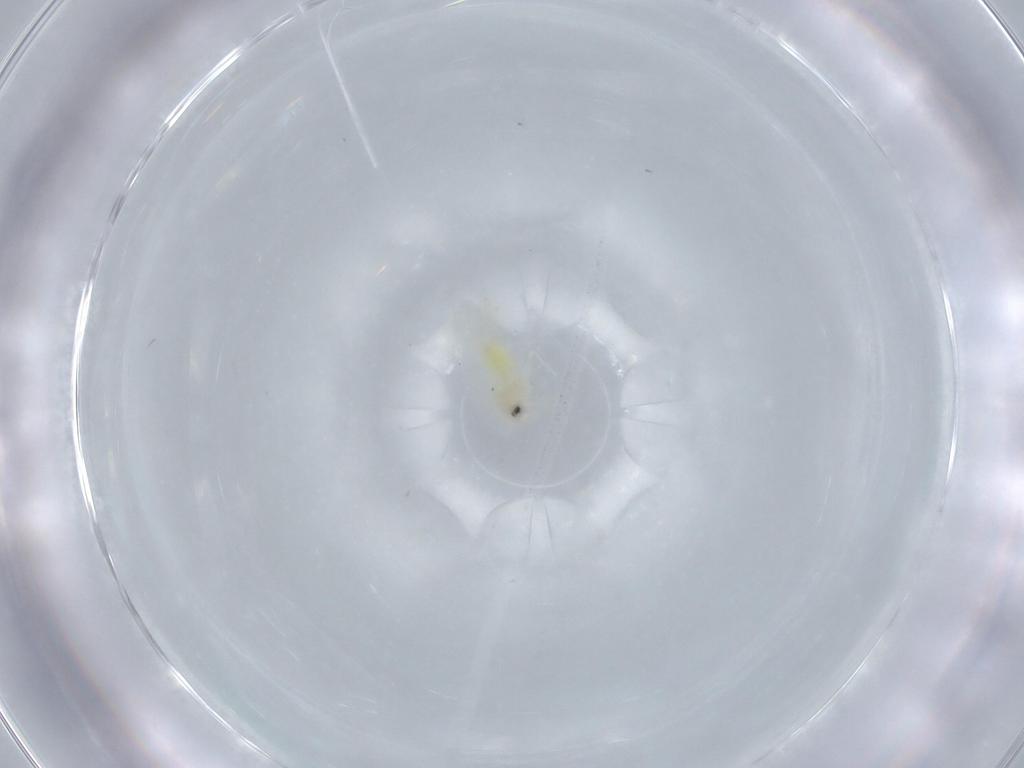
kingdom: Animalia
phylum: Arthropoda
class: Insecta
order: Hemiptera
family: Aleyrodidae
